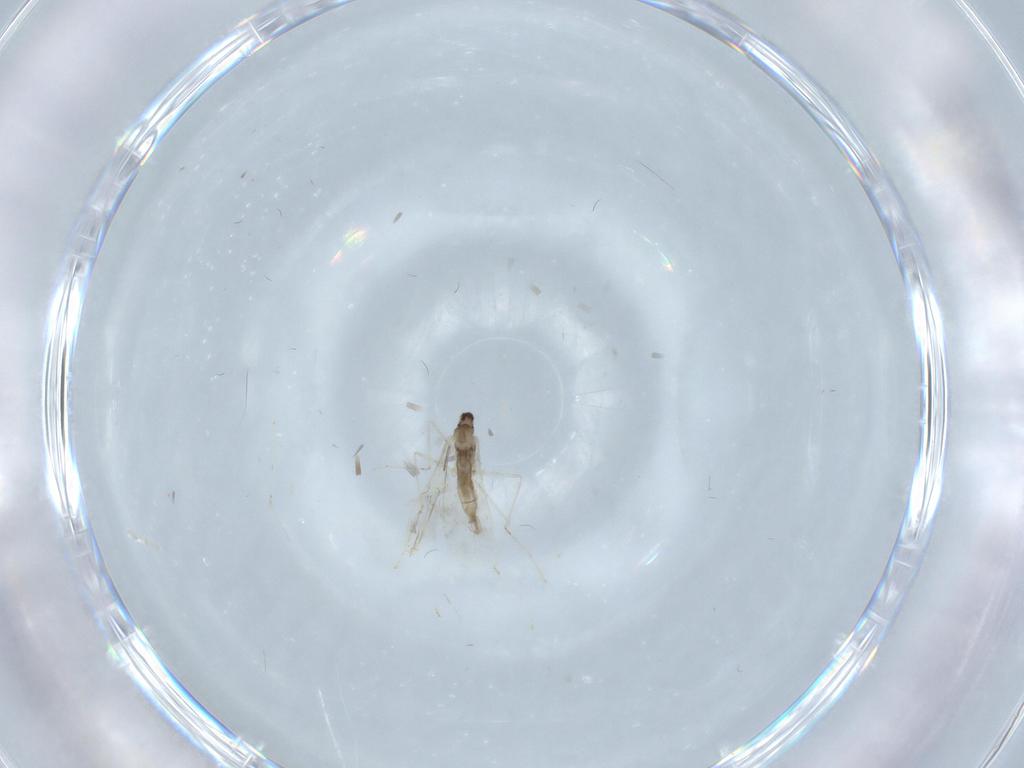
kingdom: Animalia
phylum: Arthropoda
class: Insecta
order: Diptera
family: Cecidomyiidae
